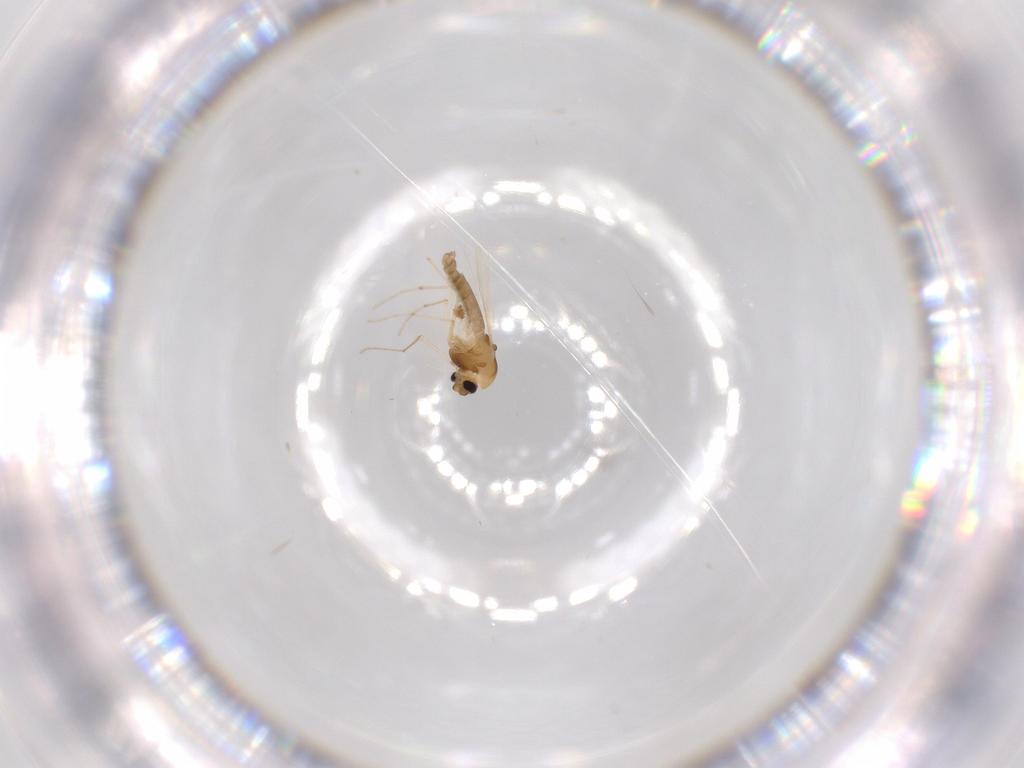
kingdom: Animalia
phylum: Arthropoda
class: Insecta
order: Diptera
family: Chironomidae
